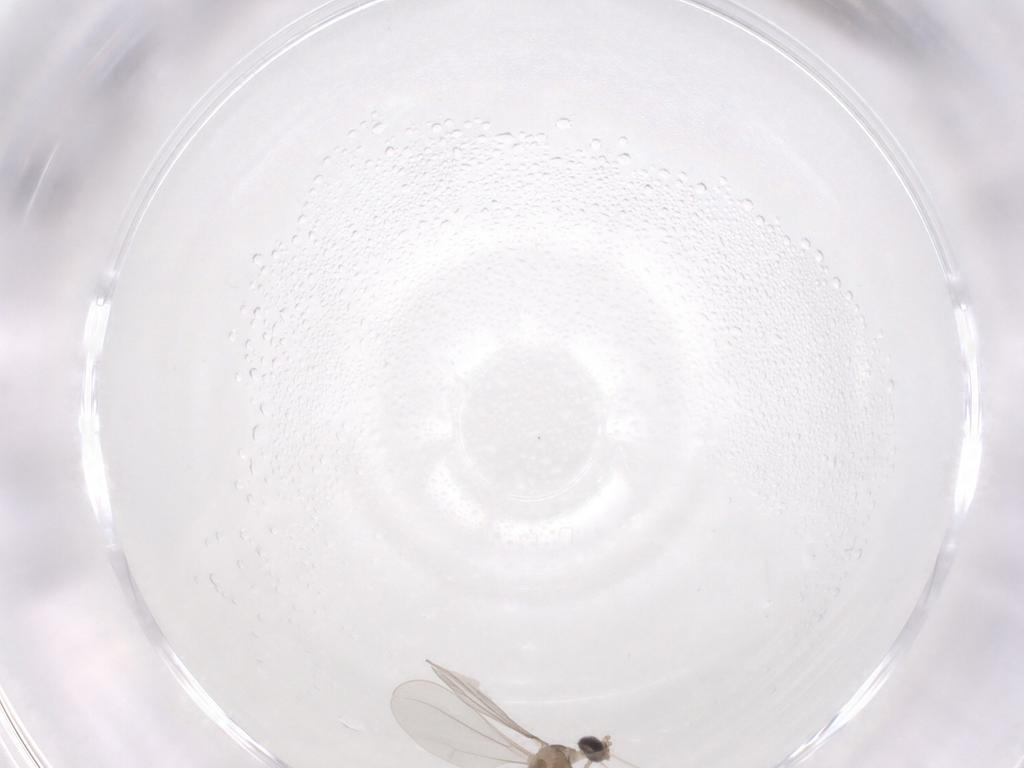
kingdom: Animalia
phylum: Arthropoda
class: Insecta
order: Diptera
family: Cecidomyiidae
